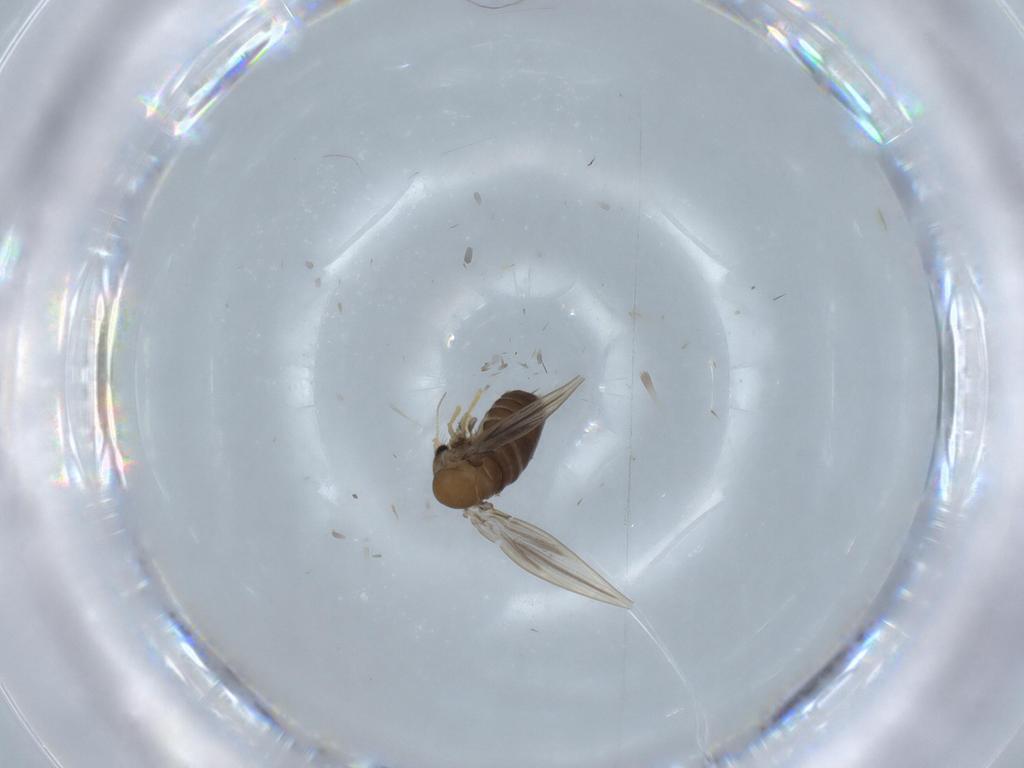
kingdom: Animalia
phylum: Arthropoda
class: Insecta
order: Diptera
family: Psychodidae
